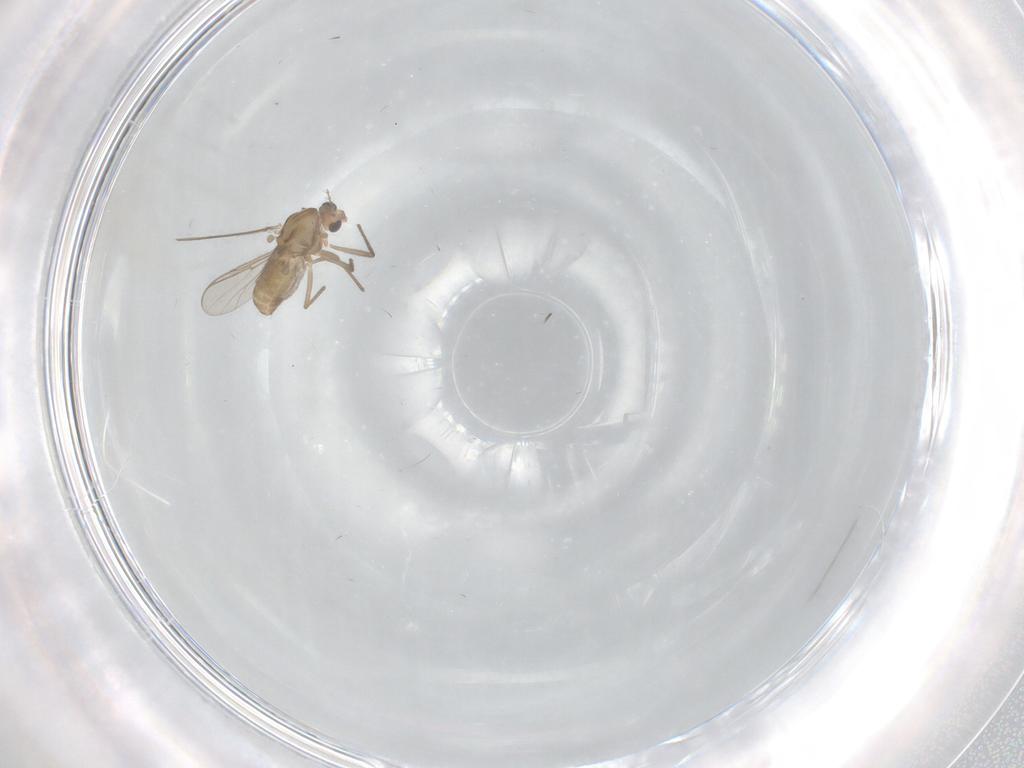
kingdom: Animalia
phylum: Arthropoda
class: Insecta
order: Diptera
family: Chironomidae
